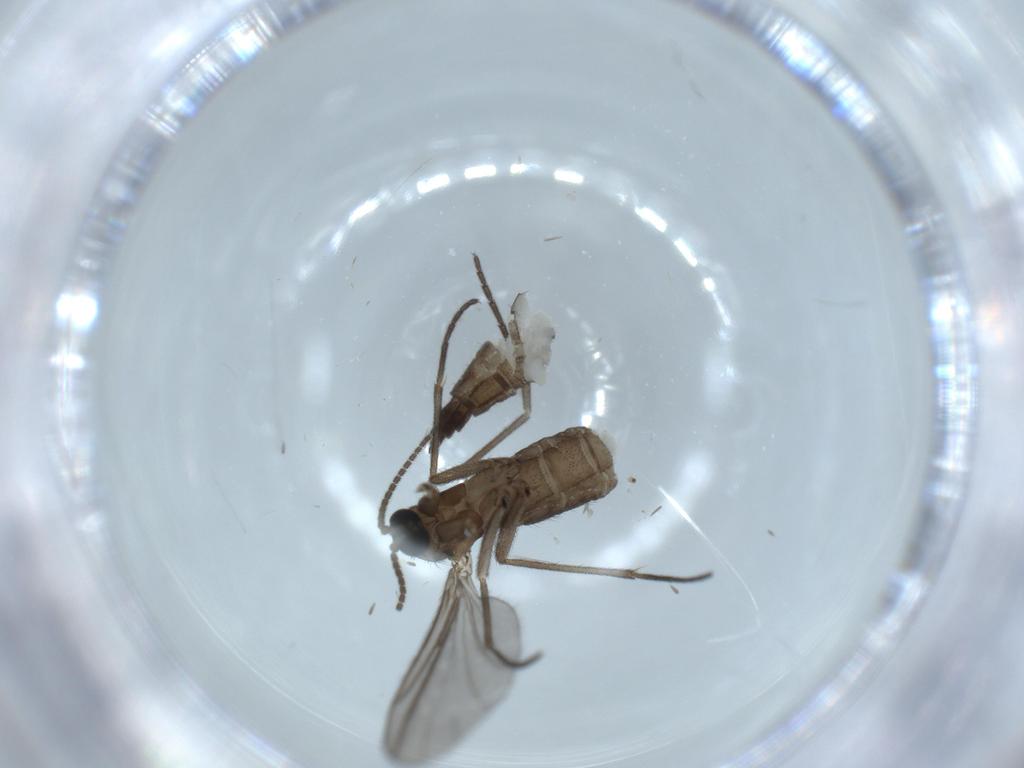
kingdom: Animalia
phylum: Arthropoda
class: Insecta
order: Diptera
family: Sciaridae
